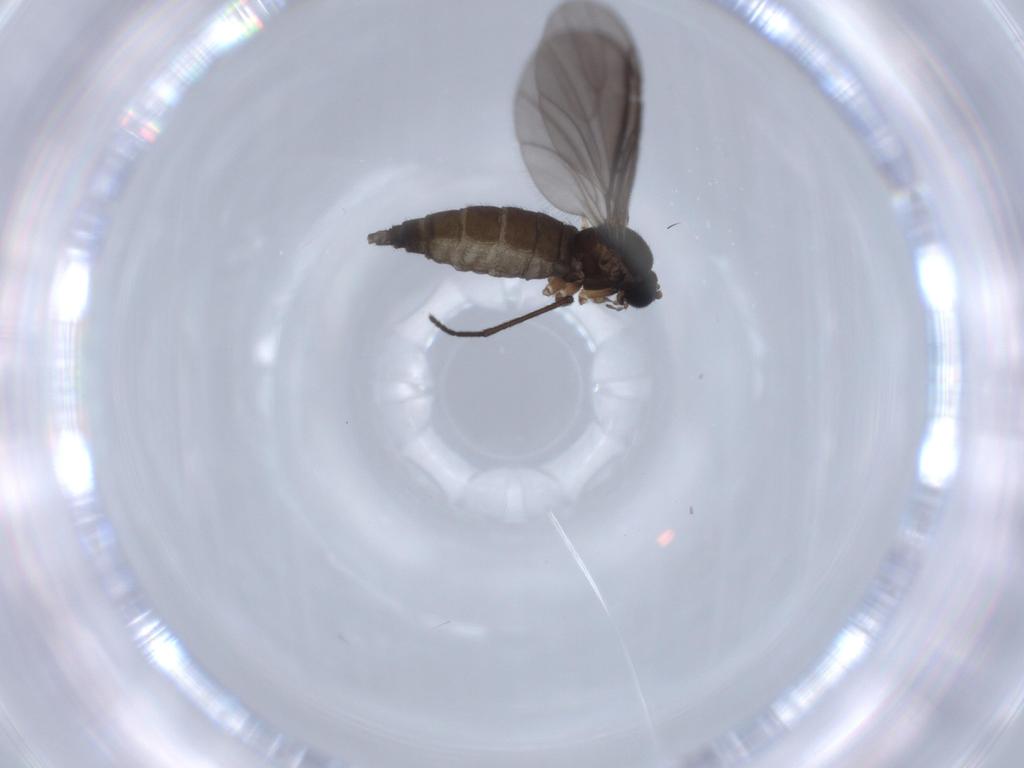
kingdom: Animalia
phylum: Arthropoda
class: Insecta
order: Diptera
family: Sciaridae
